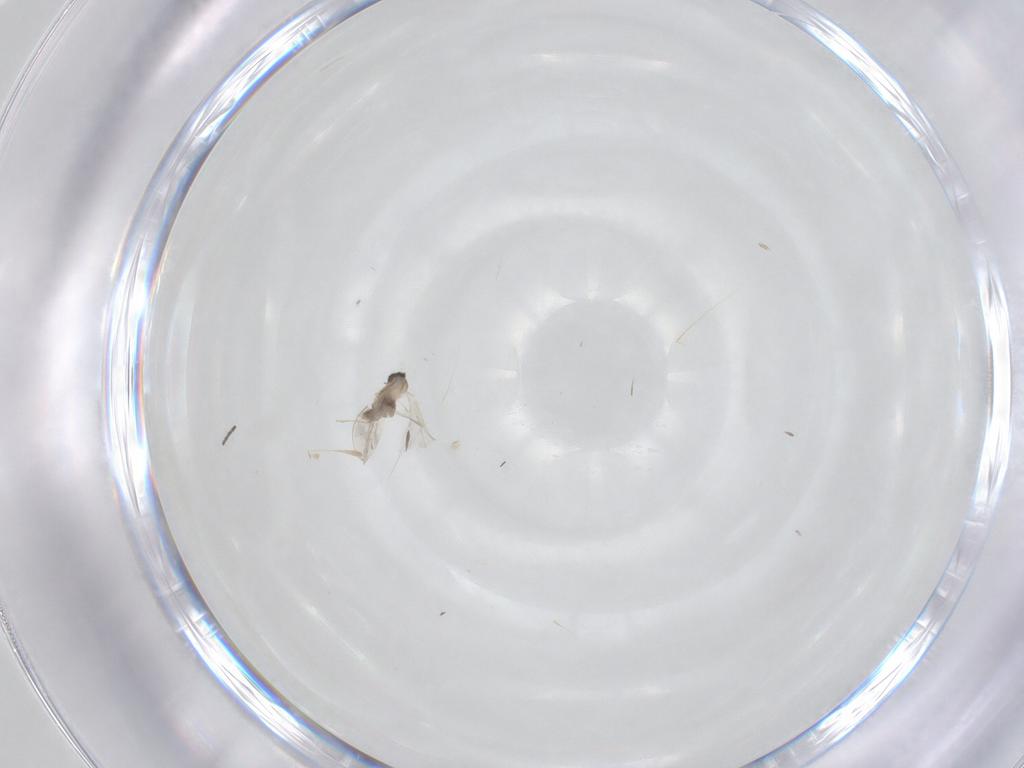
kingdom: Animalia
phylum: Arthropoda
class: Insecta
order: Diptera
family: Cecidomyiidae
